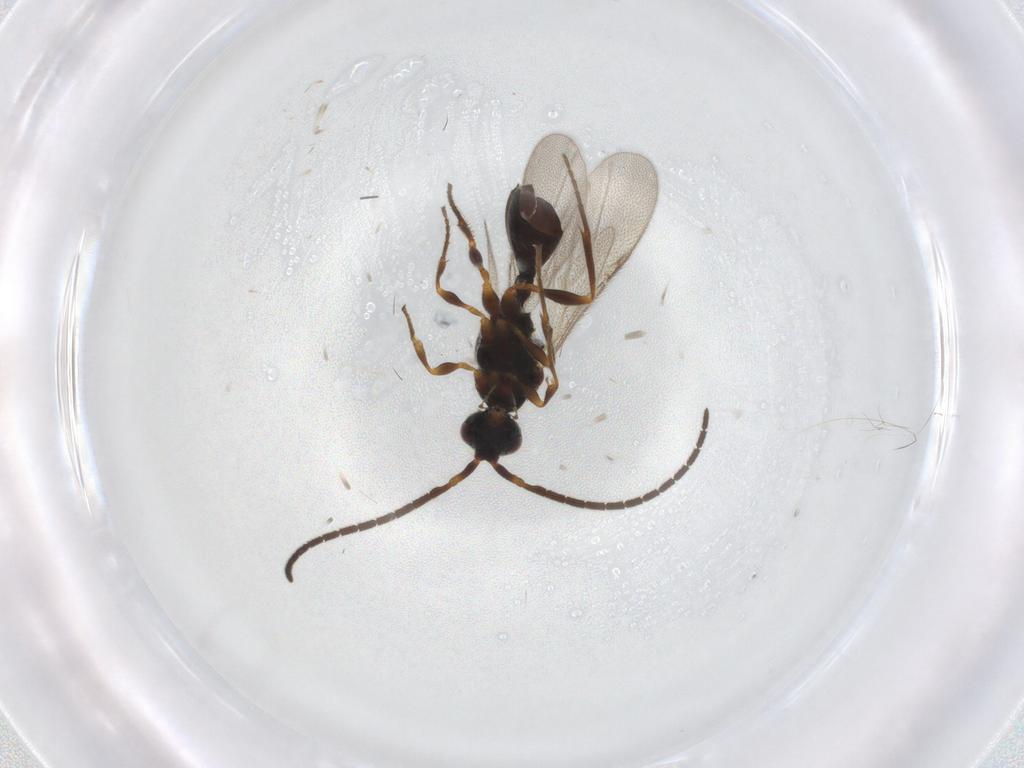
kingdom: Animalia
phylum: Arthropoda
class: Insecta
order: Hymenoptera
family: Diapriidae
